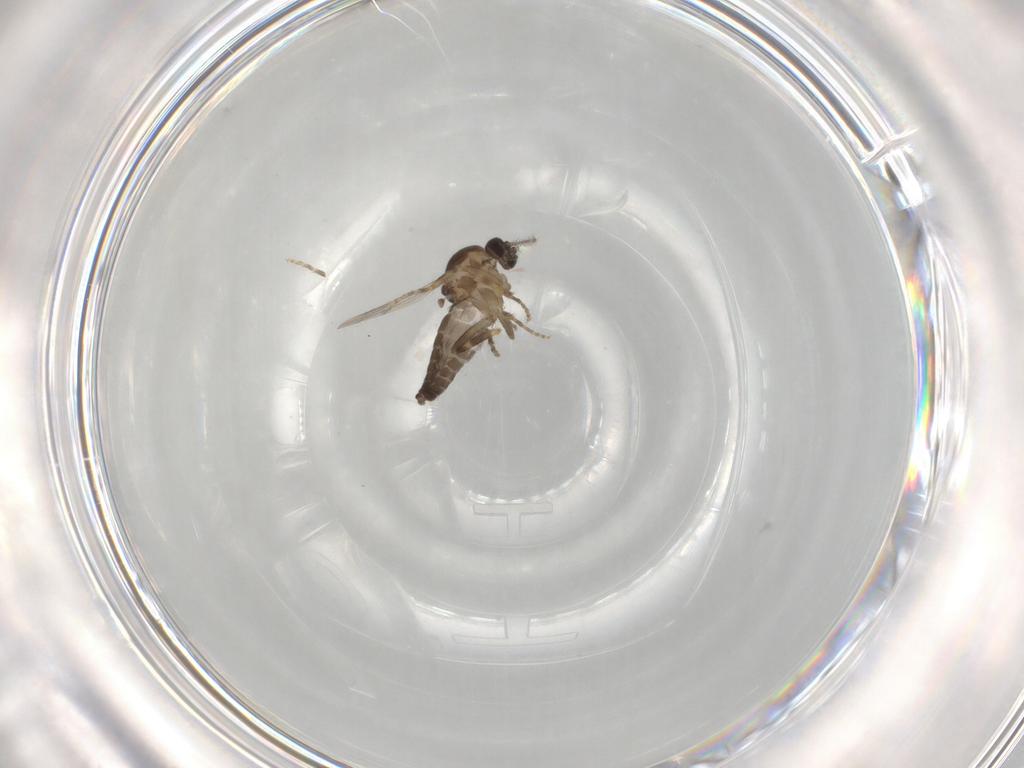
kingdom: Animalia
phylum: Arthropoda
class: Insecta
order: Diptera
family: Ceratopogonidae
